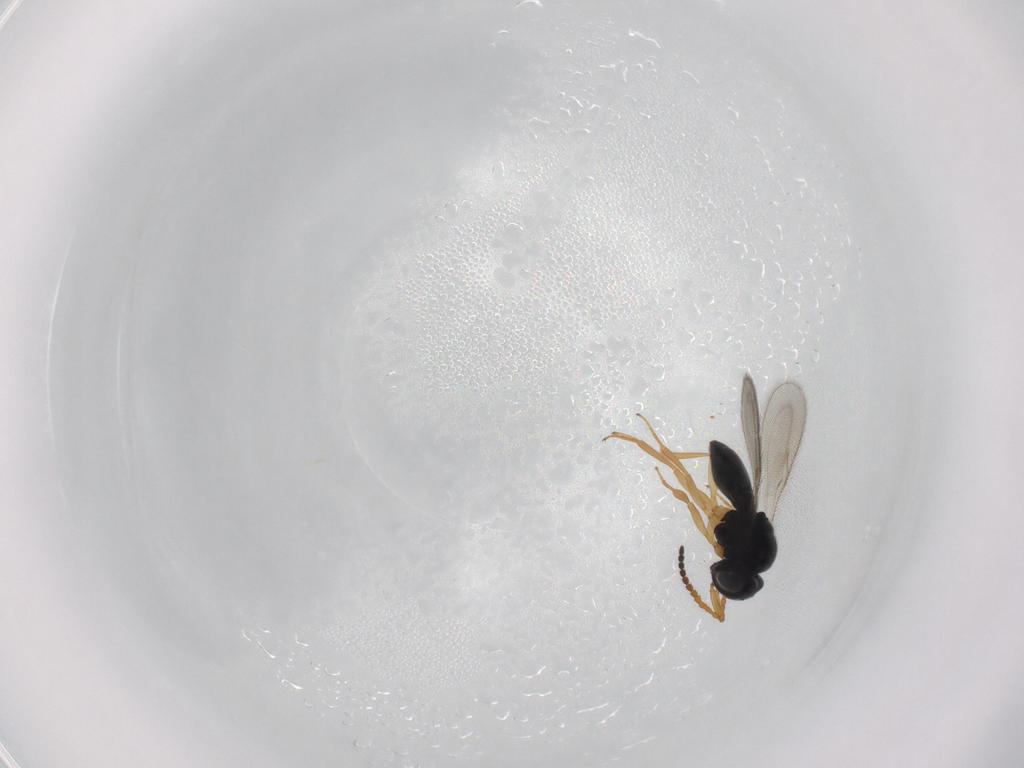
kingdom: Animalia
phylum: Arthropoda
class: Insecta
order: Hymenoptera
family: Scelionidae
